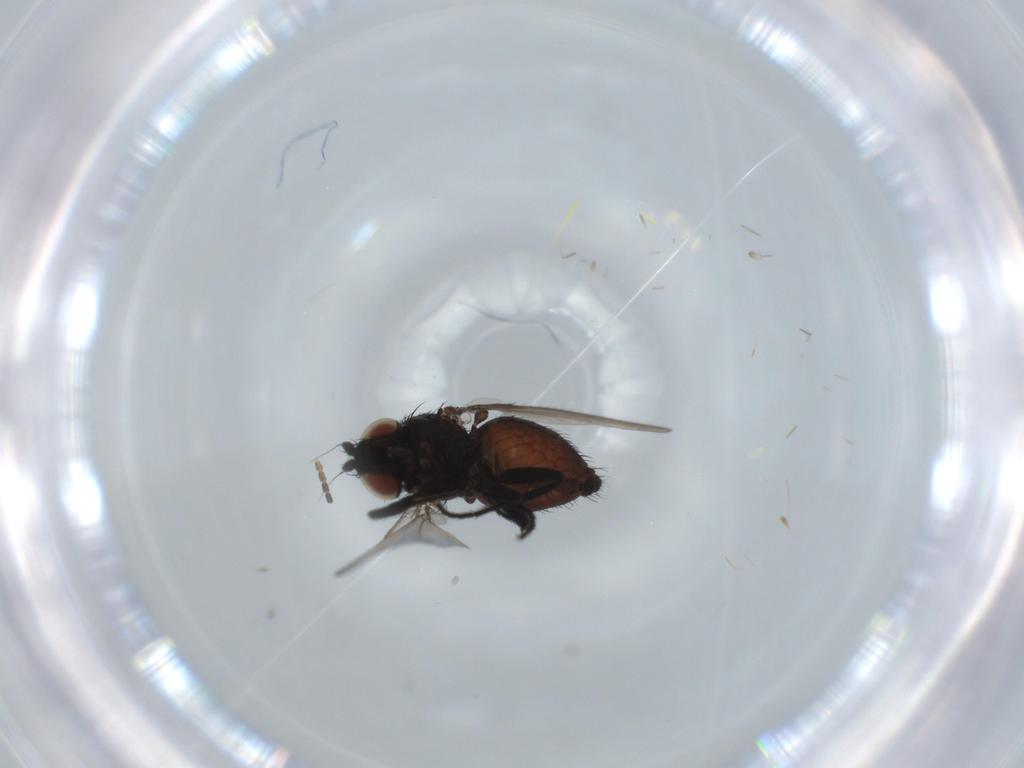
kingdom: Animalia
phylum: Arthropoda
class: Insecta
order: Diptera
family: Milichiidae
